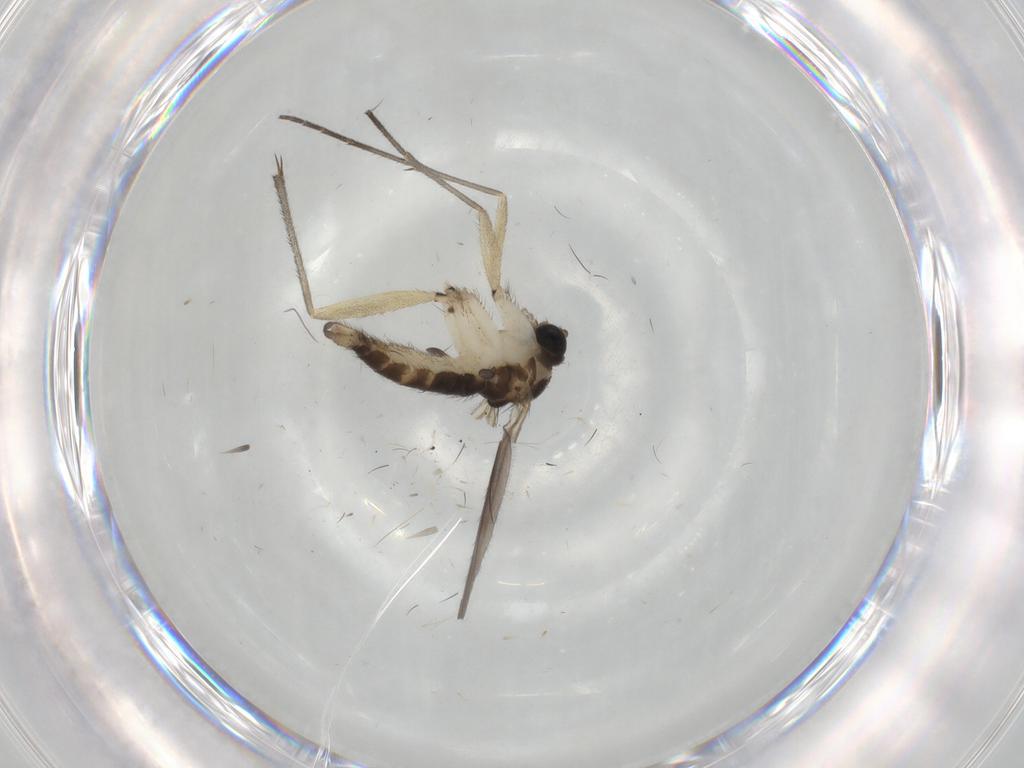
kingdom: Animalia
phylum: Arthropoda
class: Insecta
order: Diptera
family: Sciaridae
